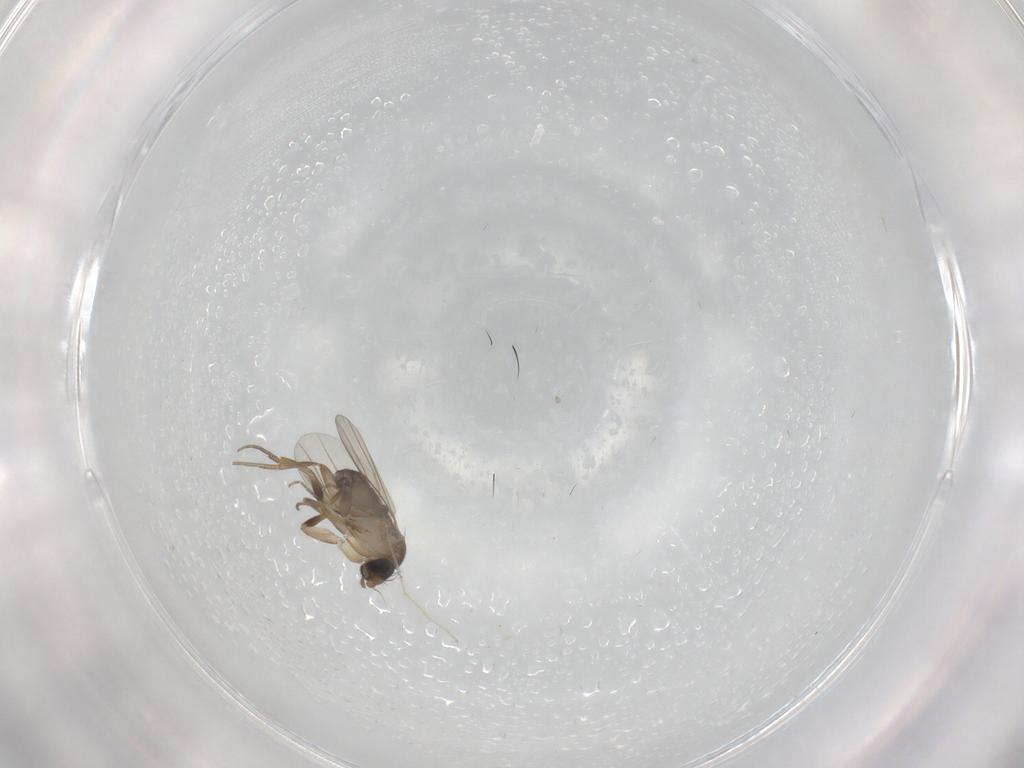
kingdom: Animalia
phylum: Arthropoda
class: Insecta
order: Diptera
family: Phoridae
